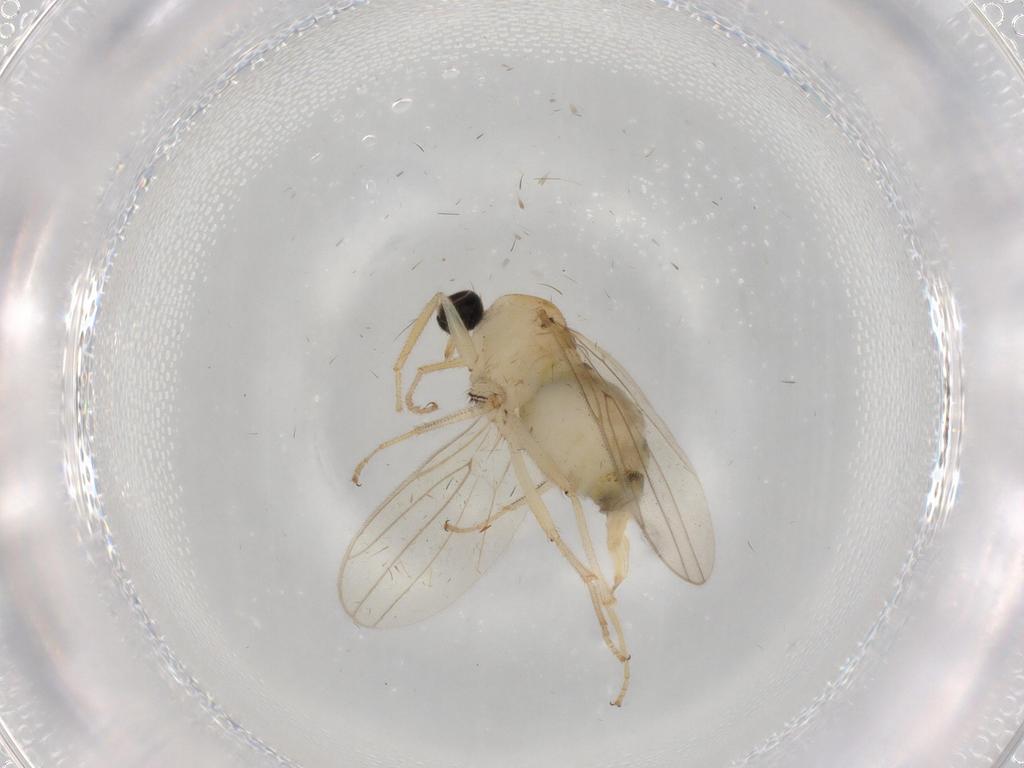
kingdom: Animalia
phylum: Arthropoda
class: Insecta
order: Diptera
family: Hybotidae
